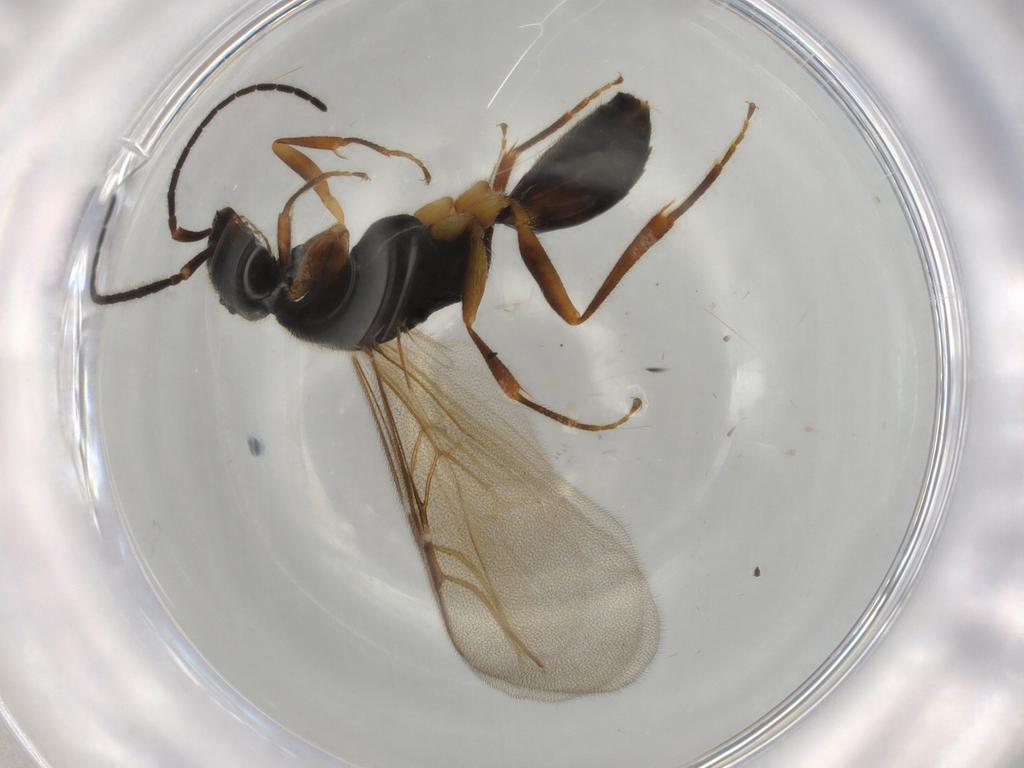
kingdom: Animalia
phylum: Arthropoda
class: Insecta
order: Hymenoptera
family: Bethylidae
